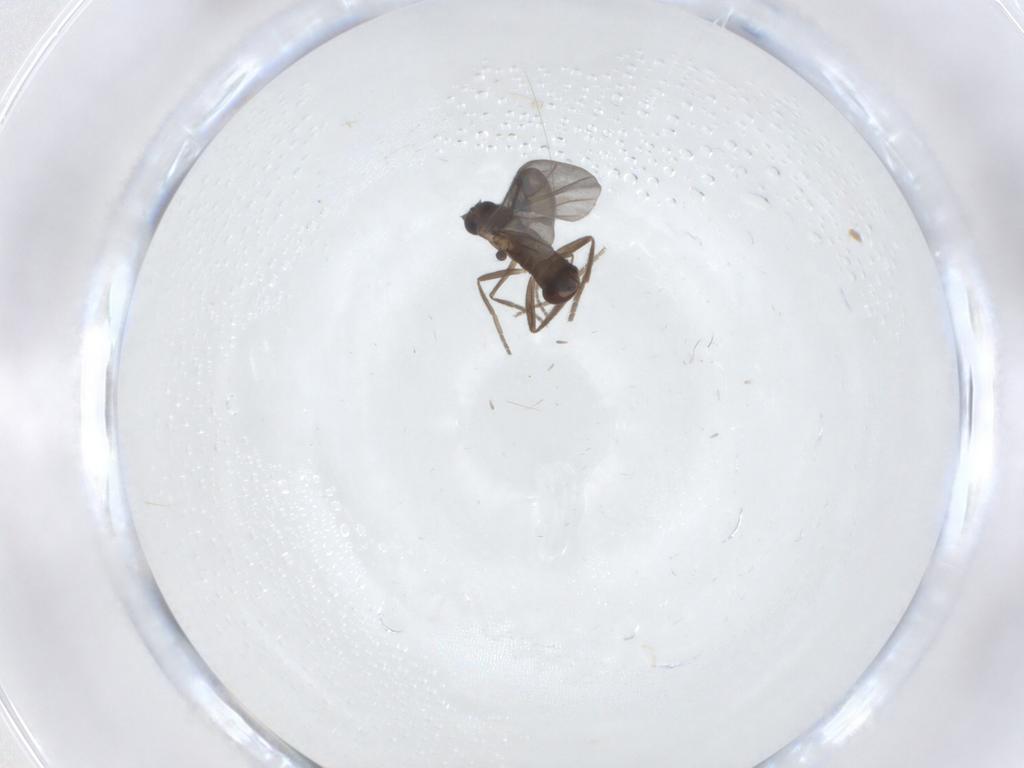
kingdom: Animalia
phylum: Arthropoda
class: Insecta
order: Diptera
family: Phoridae
